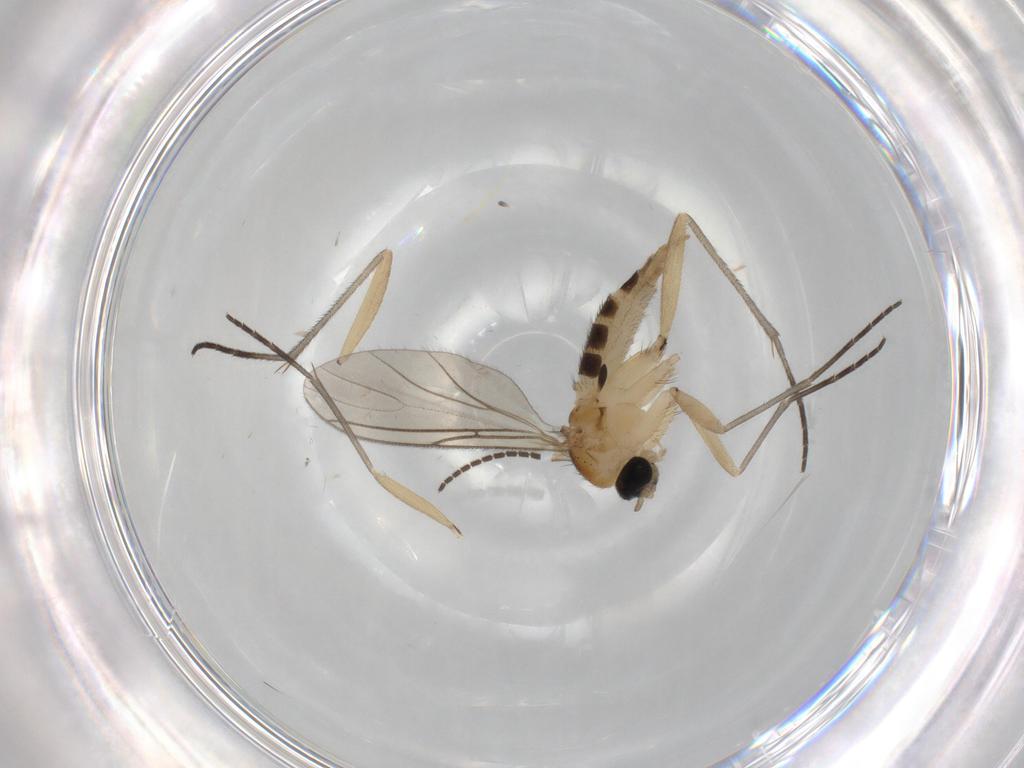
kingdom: Animalia
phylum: Arthropoda
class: Insecta
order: Diptera
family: Sciaridae
